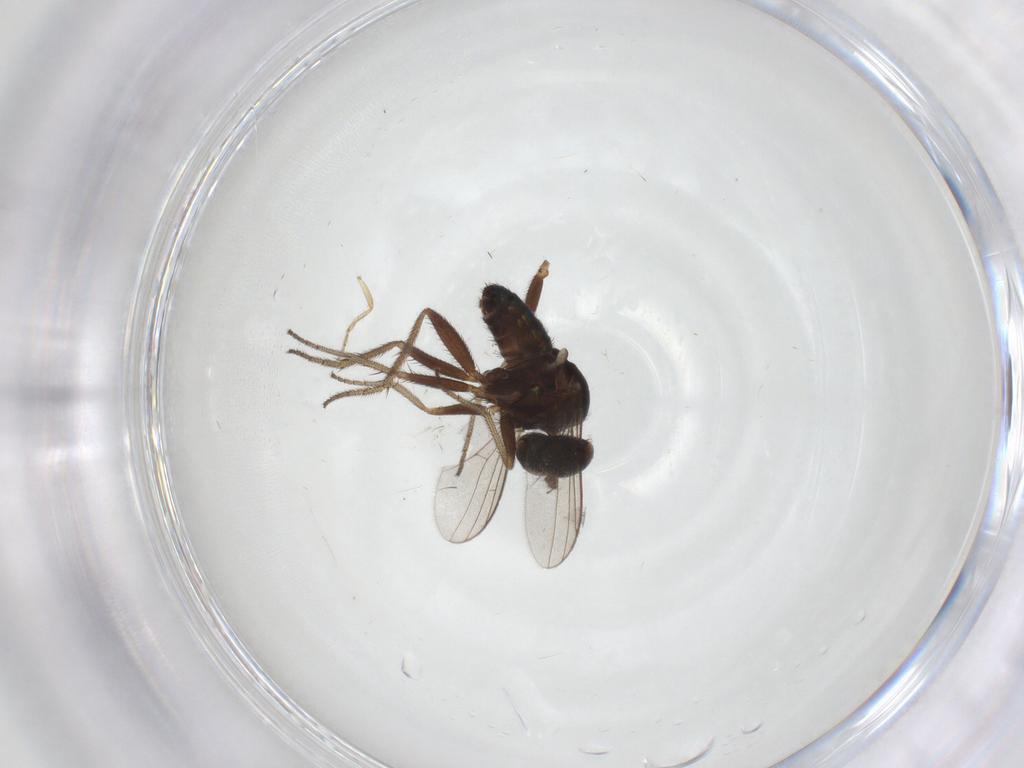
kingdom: Animalia
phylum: Arthropoda
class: Insecta
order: Diptera
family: Ceratopogonidae
